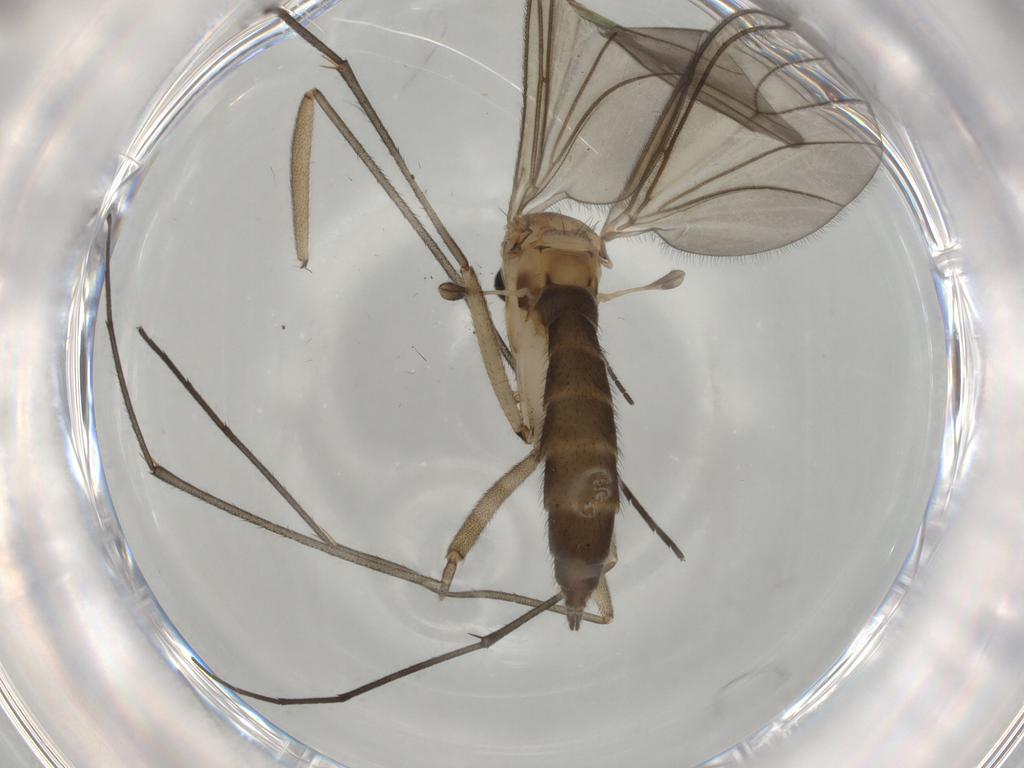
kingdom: Animalia
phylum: Arthropoda
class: Insecta
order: Diptera
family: Sciaridae
